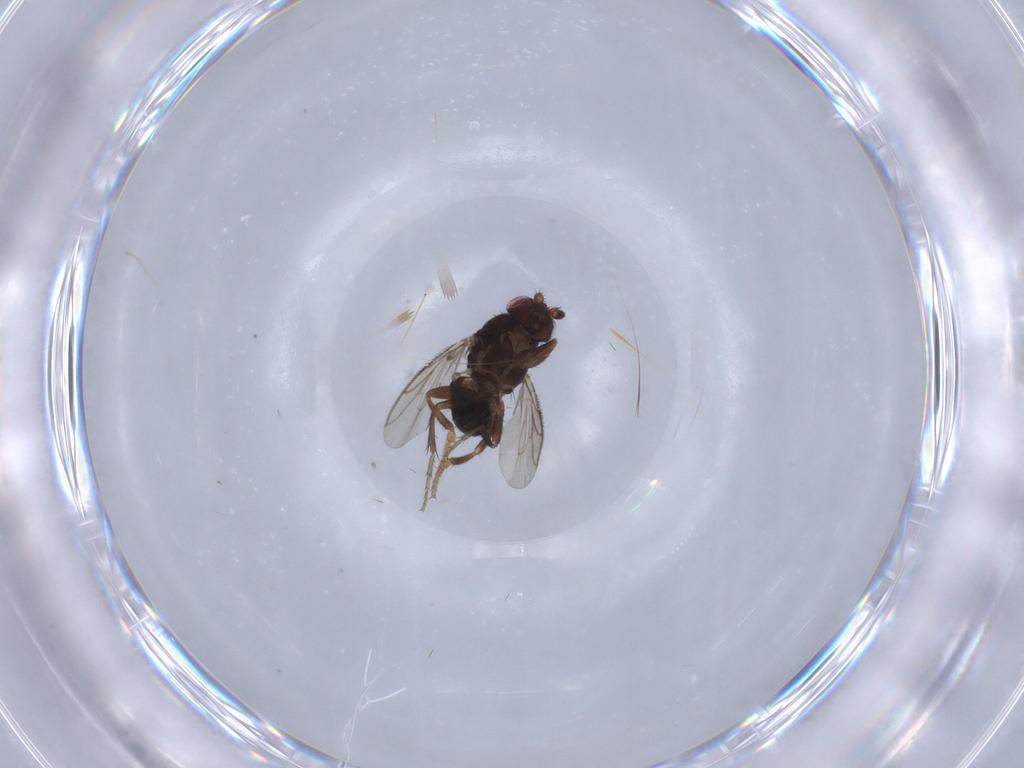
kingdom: Animalia
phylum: Arthropoda
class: Insecta
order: Diptera
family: Sphaeroceridae
